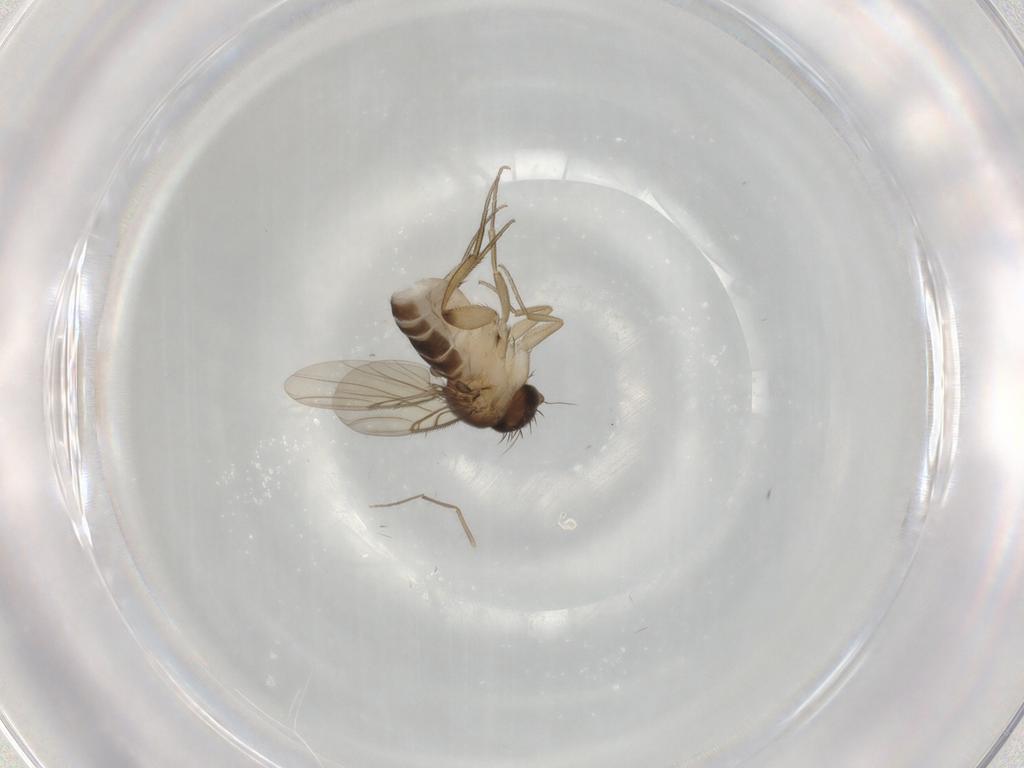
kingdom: Animalia
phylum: Arthropoda
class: Insecta
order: Diptera
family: Phoridae
